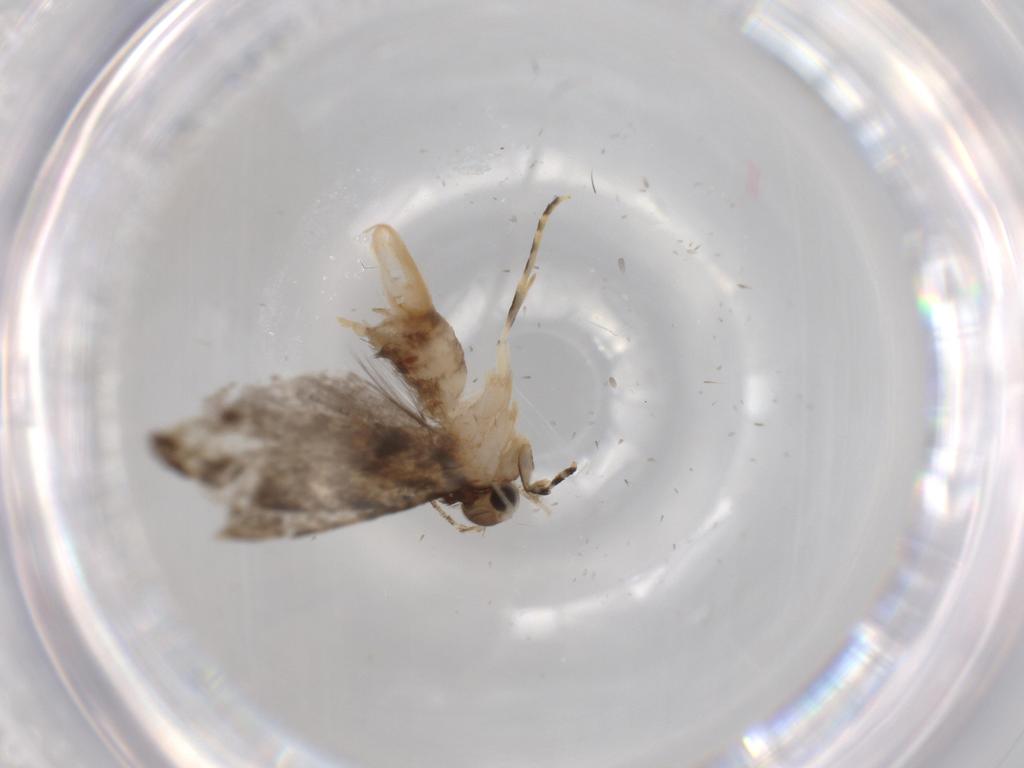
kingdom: Animalia
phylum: Arthropoda
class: Insecta
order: Lepidoptera
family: Tineidae
